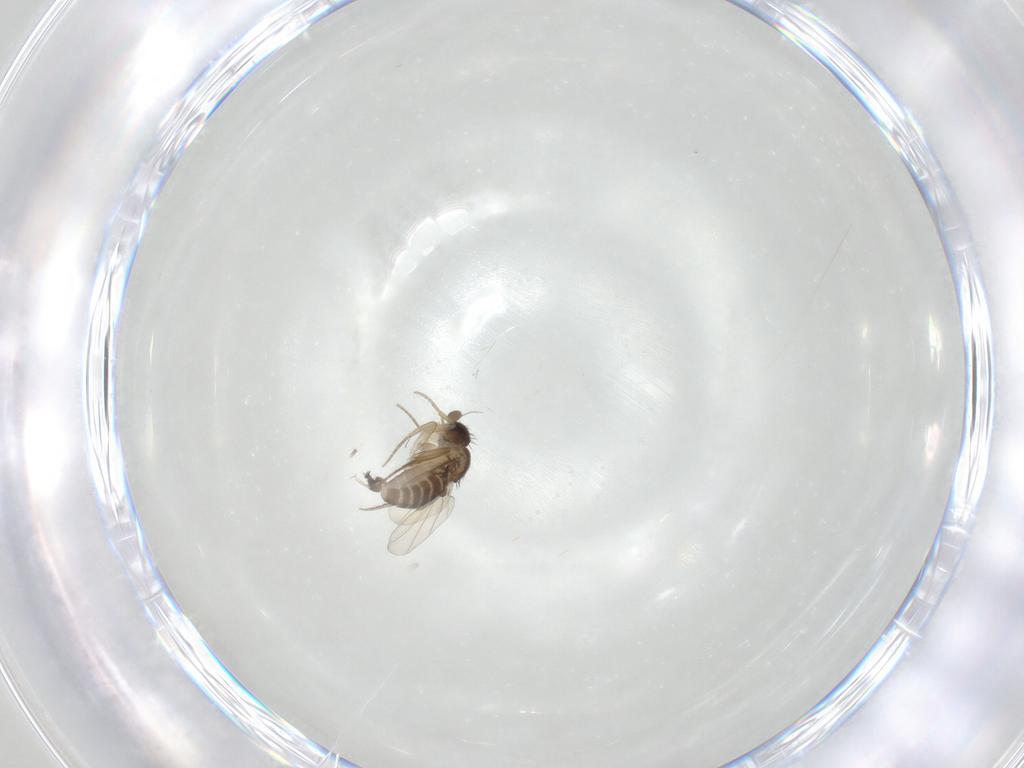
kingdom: Animalia
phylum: Arthropoda
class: Insecta
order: Diptera
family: Phoridae
